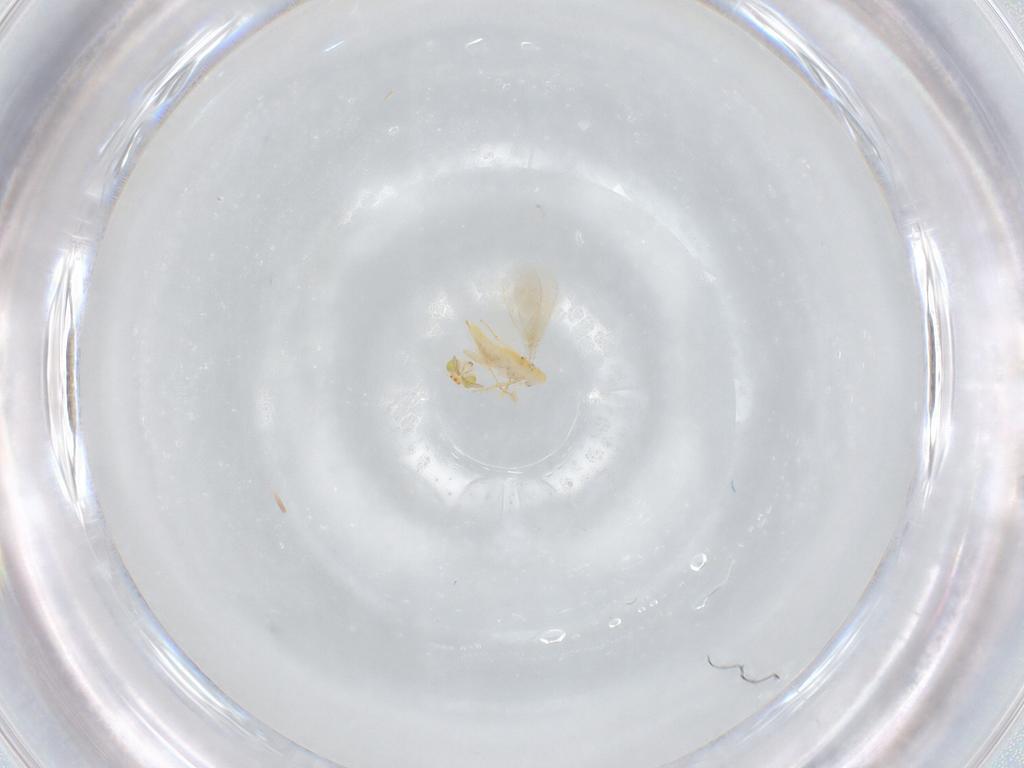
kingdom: Animalia
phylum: Arthropoda
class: Insecta
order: Hymenoptera
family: Aphelinidae
